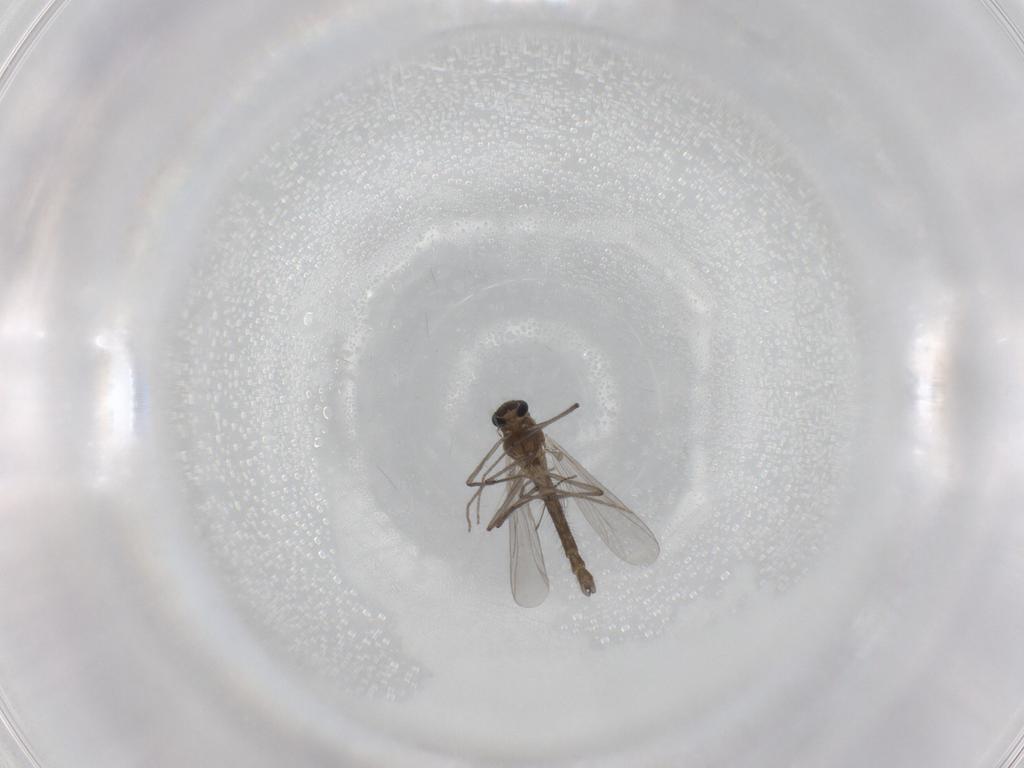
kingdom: Animalia
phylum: Arthropoda
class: Insecta
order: Diptera
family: Chironomidae
